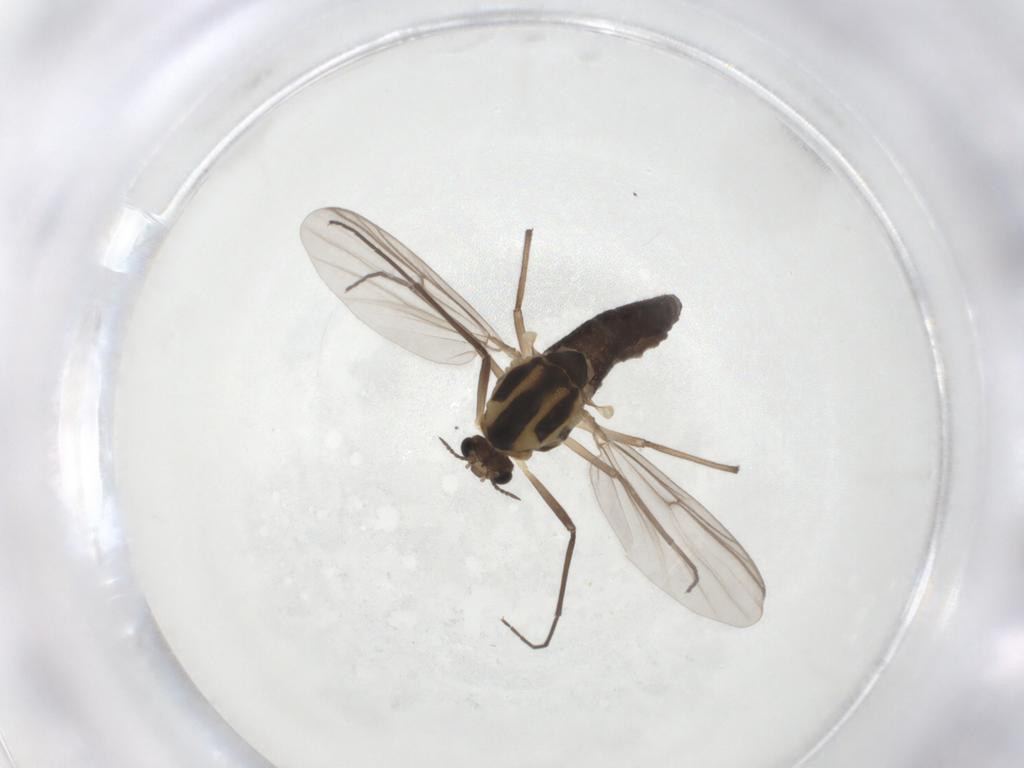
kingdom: Animalia
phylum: Arthropoda
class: Insecta
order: Diptera
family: Chironomidae
